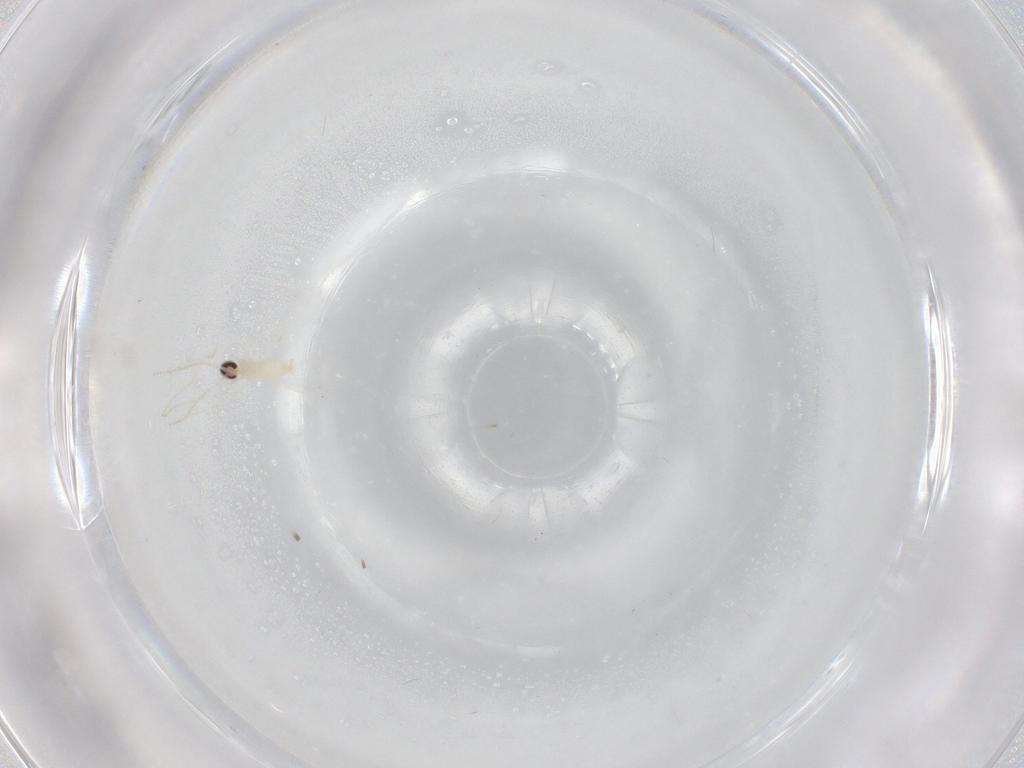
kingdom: Animalia
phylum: Arthropoda
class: Insecta
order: Diptera
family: Cecidomyiidae
